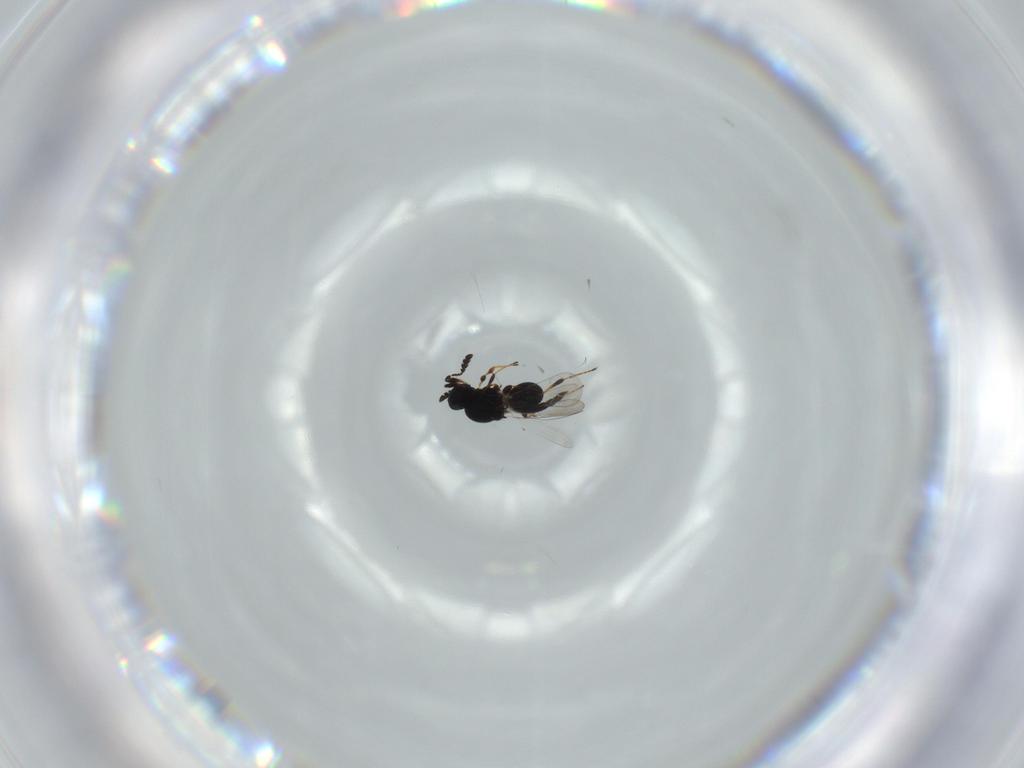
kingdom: Animalia
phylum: Arthropoda
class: Insecta
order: Hymenoptera
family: Platygastridae
